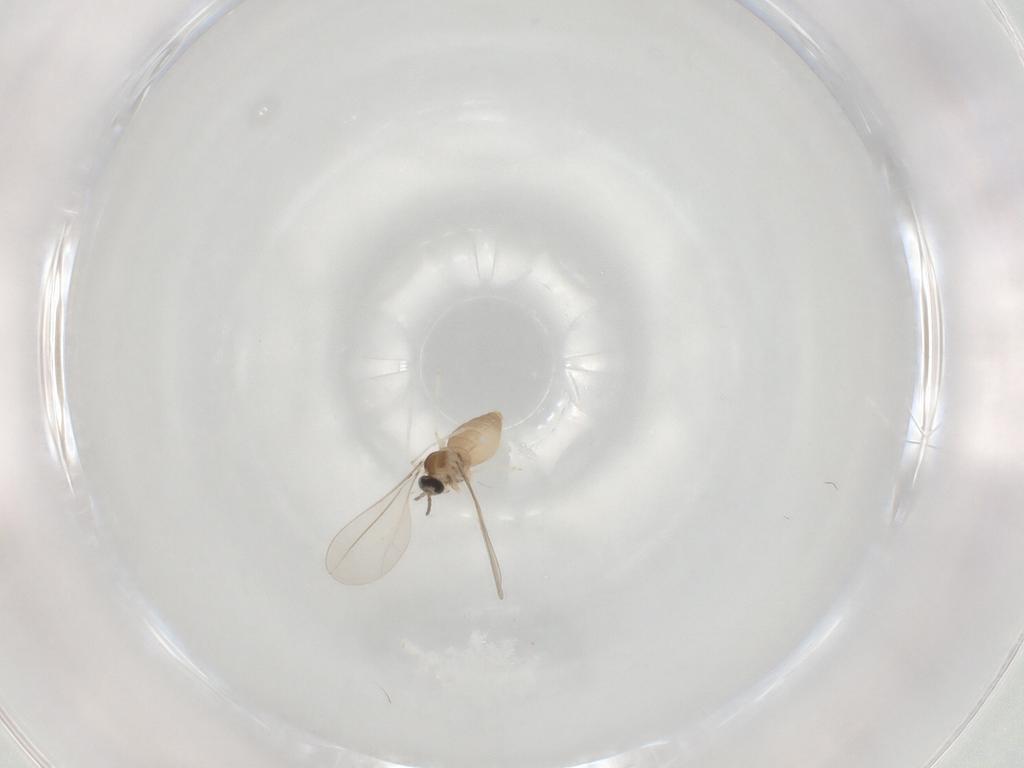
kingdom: Animalia
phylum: Arthropoda
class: Insecta
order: Diptera
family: Cecidomyiidae
